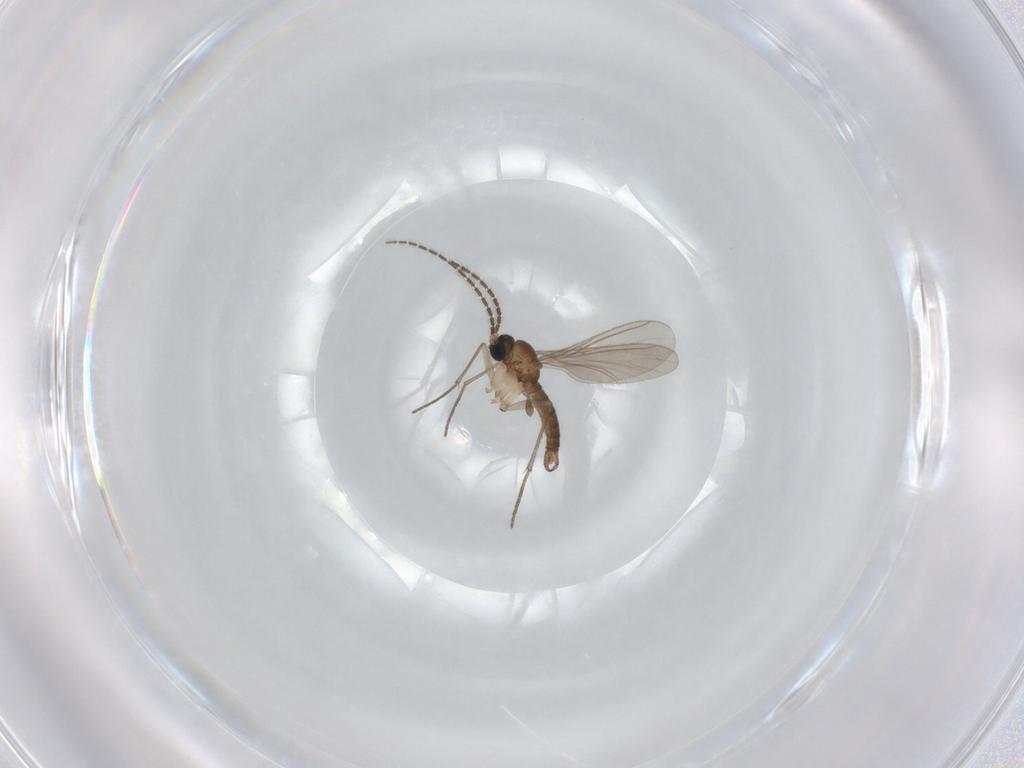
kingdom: Animalia
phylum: Arthropoda
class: Insecta
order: Diptera
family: Sciaridae
